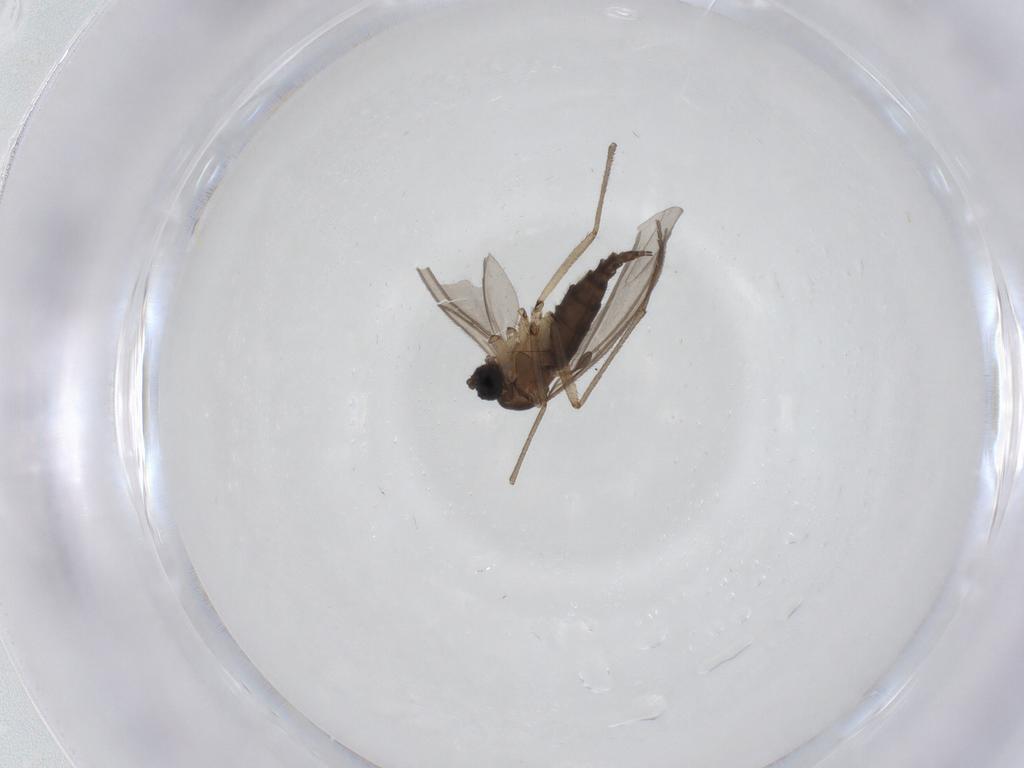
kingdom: Animalia
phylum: Arthropoda
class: Insecta
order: Diptera
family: Sciaridae
